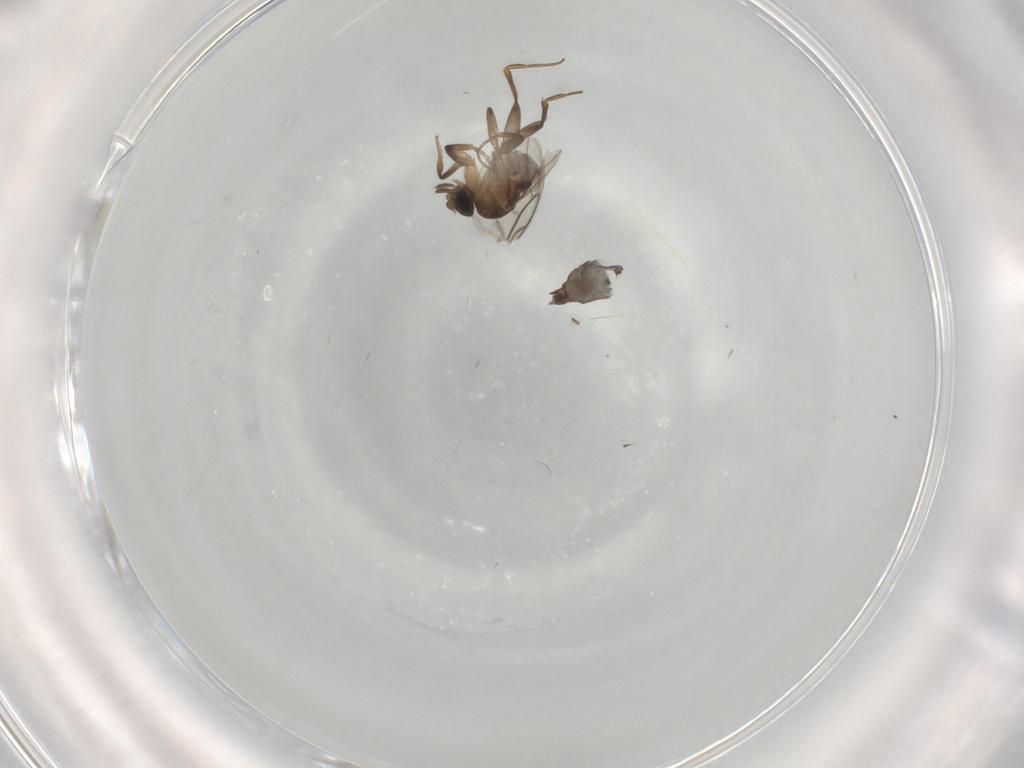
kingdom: Animalia
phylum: Arthropoda
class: Insecta
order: Diptera
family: Cecidomyiidae
